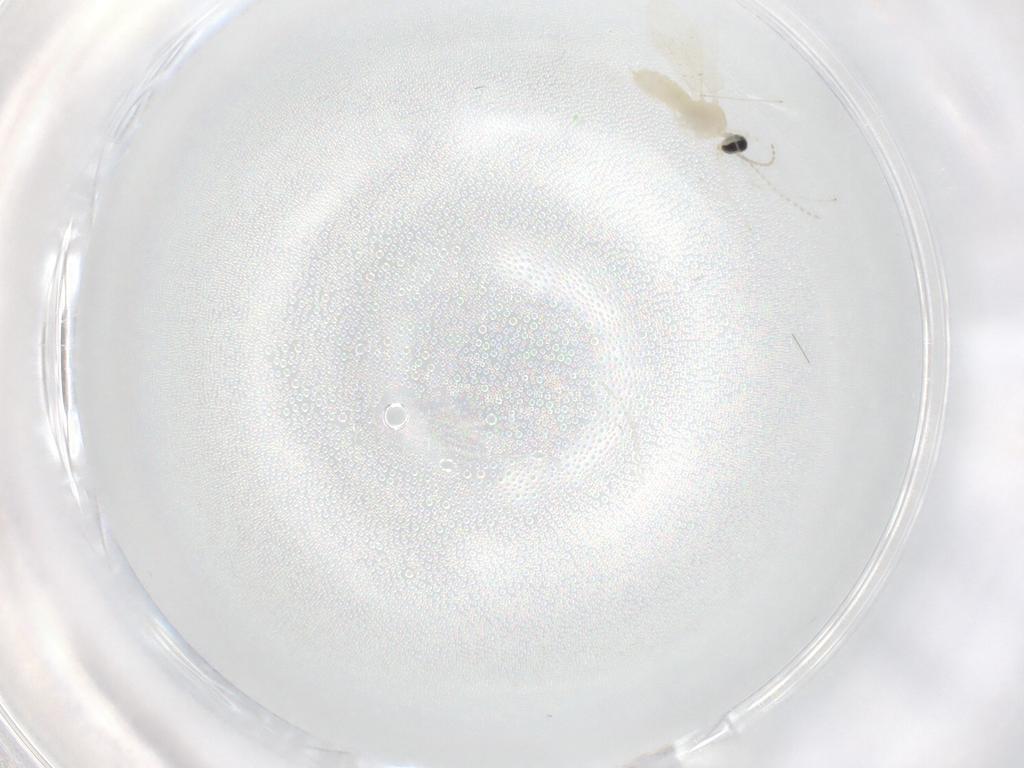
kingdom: Animalia
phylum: Arthropoda
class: Insecta
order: Diptera
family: Cecidomyiidae
